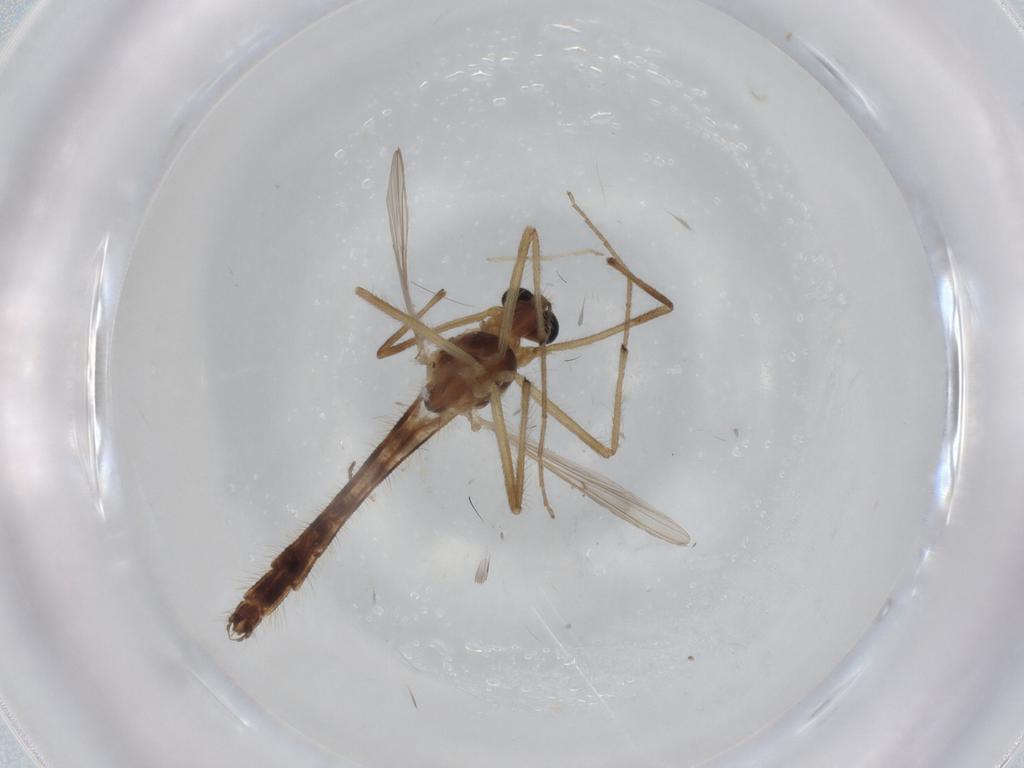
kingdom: Animalia
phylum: Arthropoda
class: Insecta
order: Diptera
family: Chironomidae
